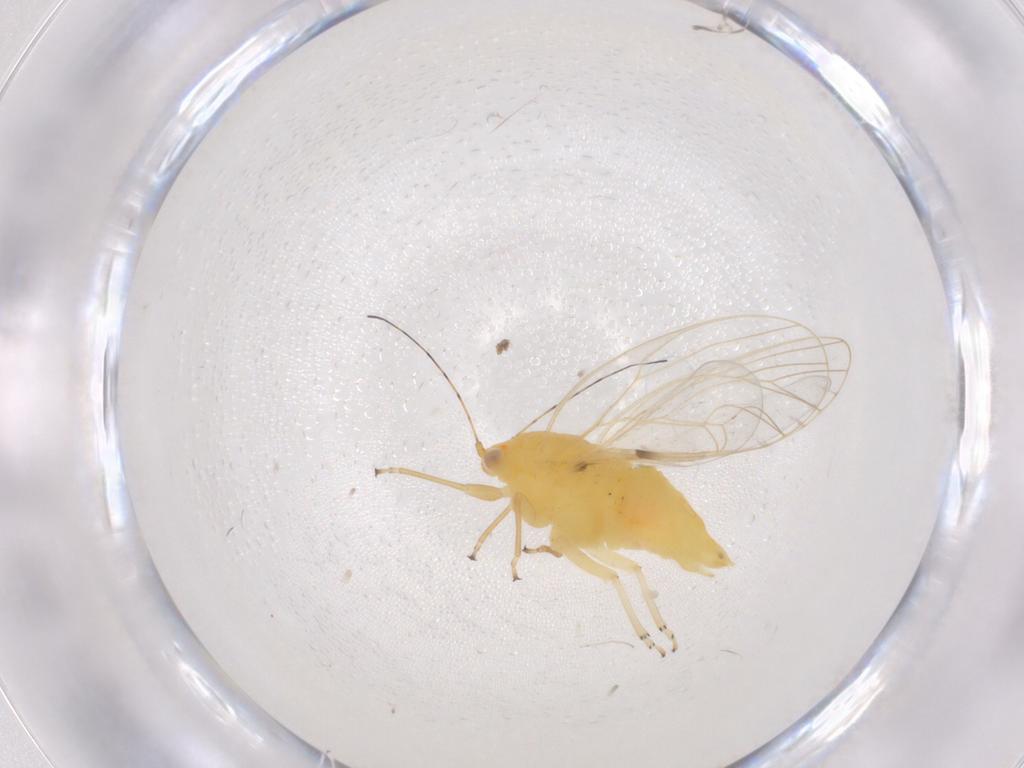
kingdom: Animalia
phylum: Arthropoda
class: Insecta
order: Hemiptera
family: Psyllidae
